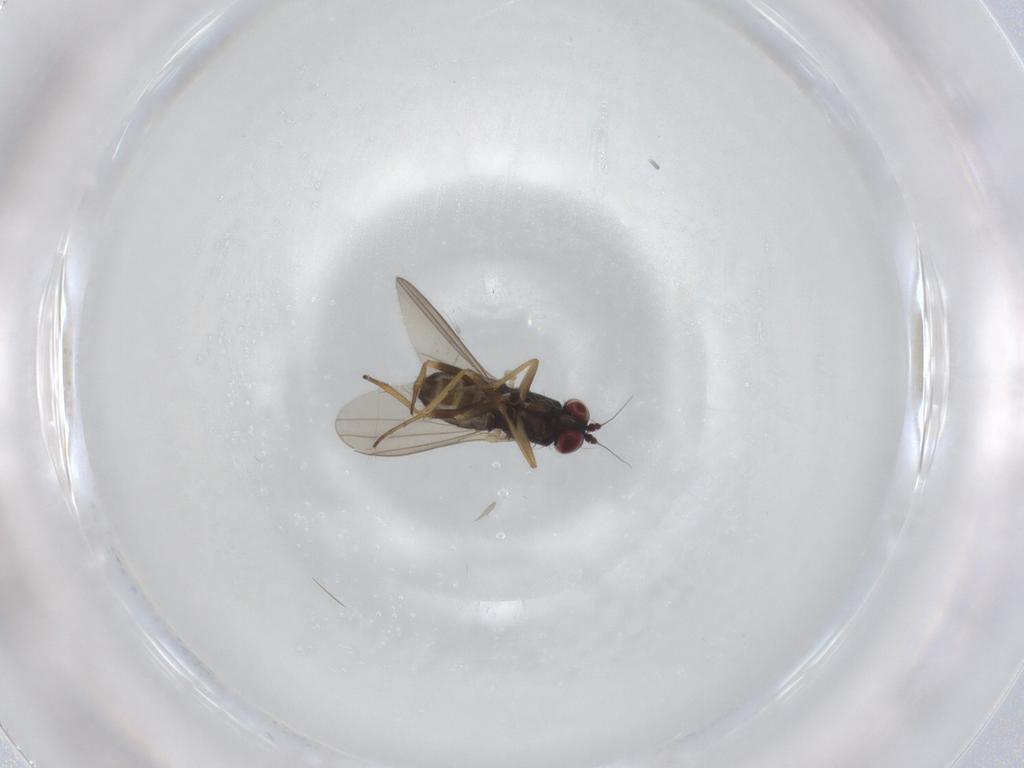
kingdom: Animalia
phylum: Arthropoda
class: Insecta
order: Diptera
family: Dolichopodidae
